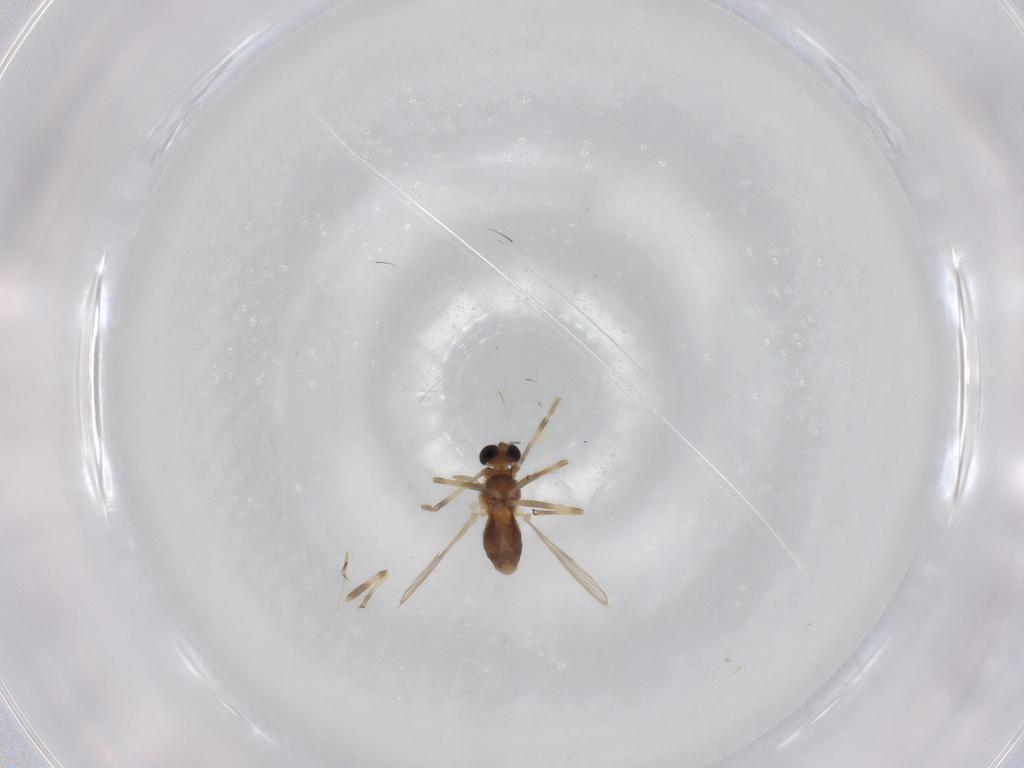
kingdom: Animalia
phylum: Arthropoda
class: Insecta
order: Diptera
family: Chironomidae
